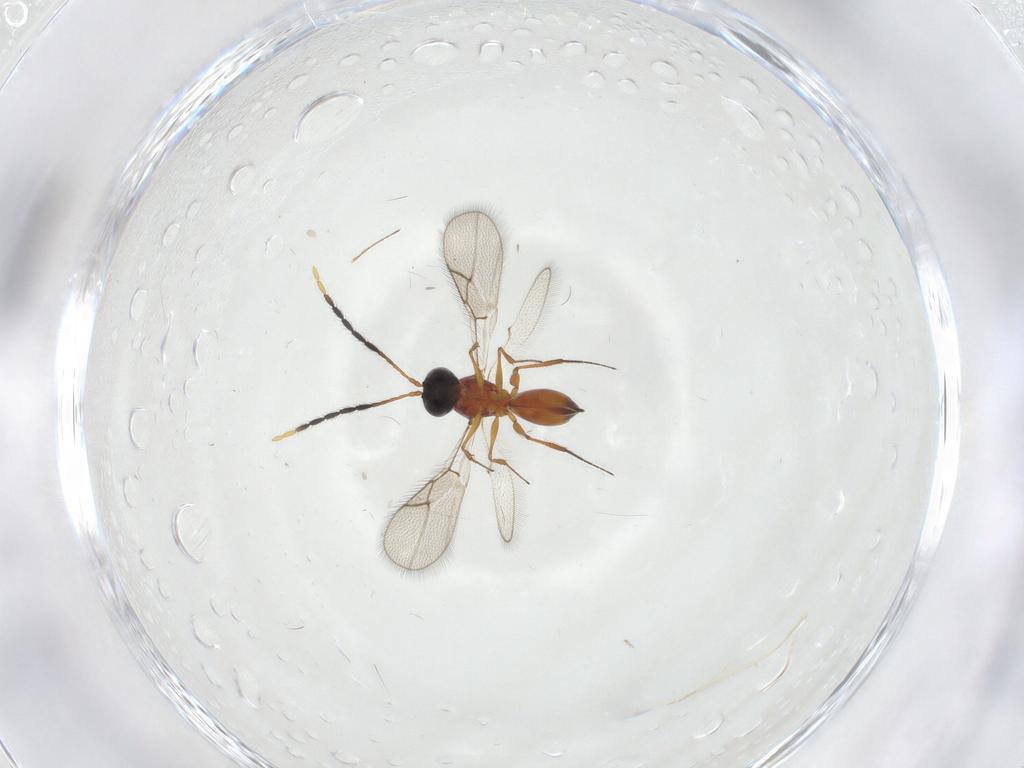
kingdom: Animalia
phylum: Arthropoda
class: Insecta
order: Hymenoptera
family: Figitidae
